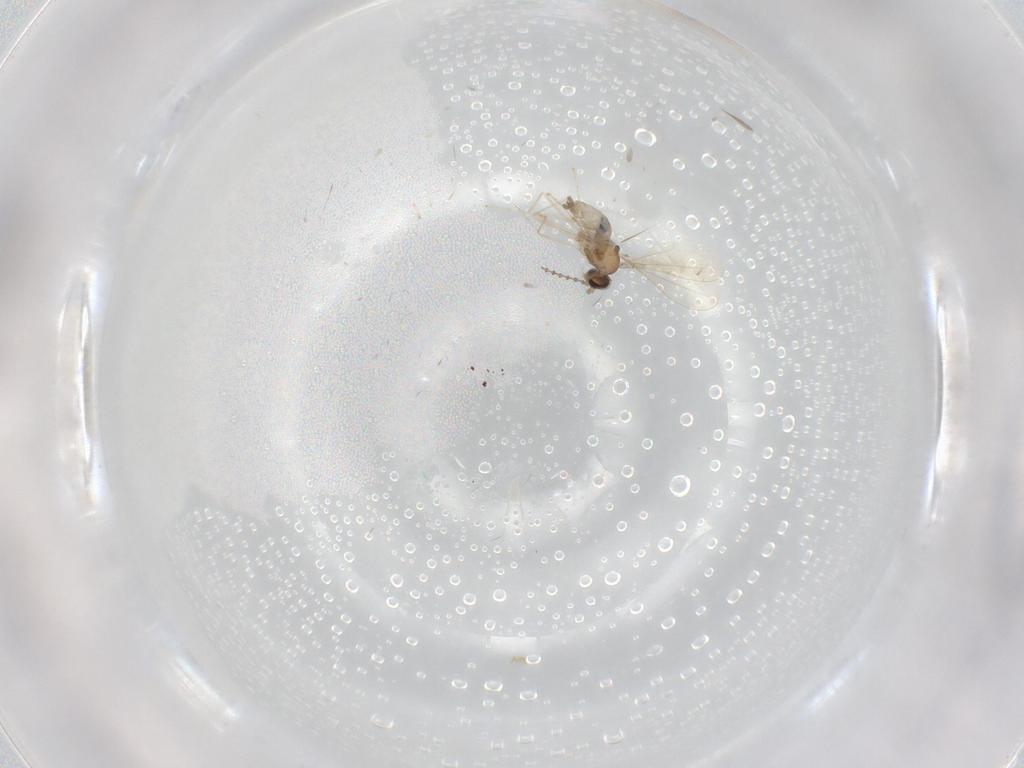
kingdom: Animalia
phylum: Arthropoda
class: Insecta
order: Diptera
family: Cecidomyiidae
